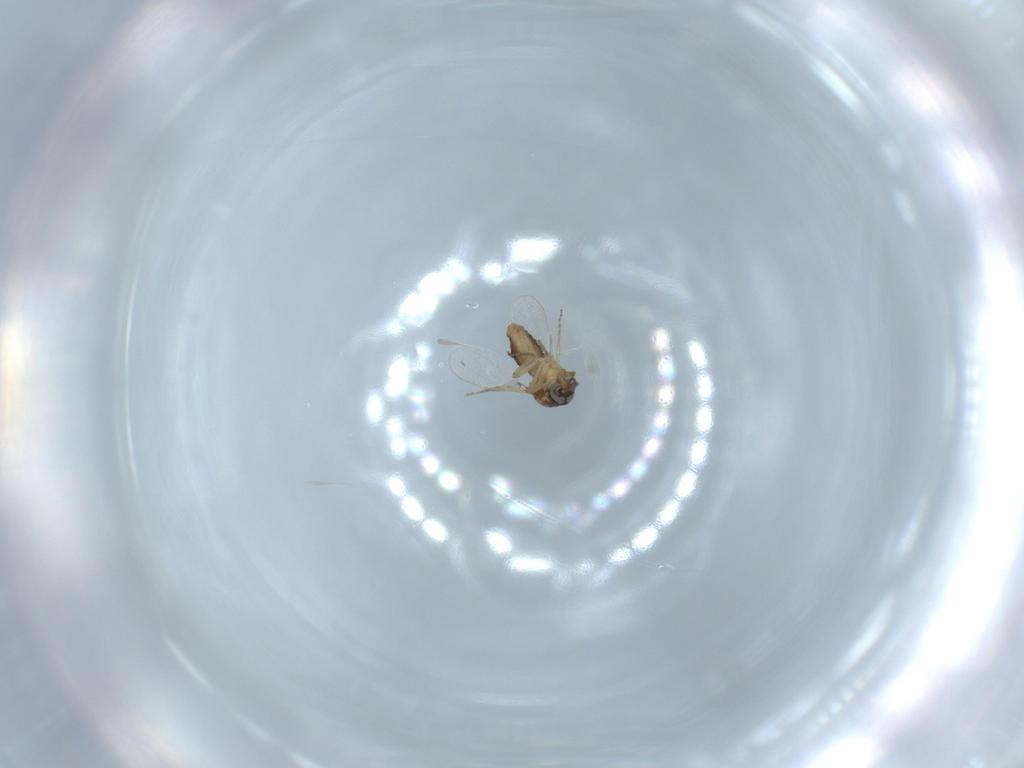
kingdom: Animalia
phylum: Arthropoda
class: Insecta
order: Diptera
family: Ceratopogonidae
